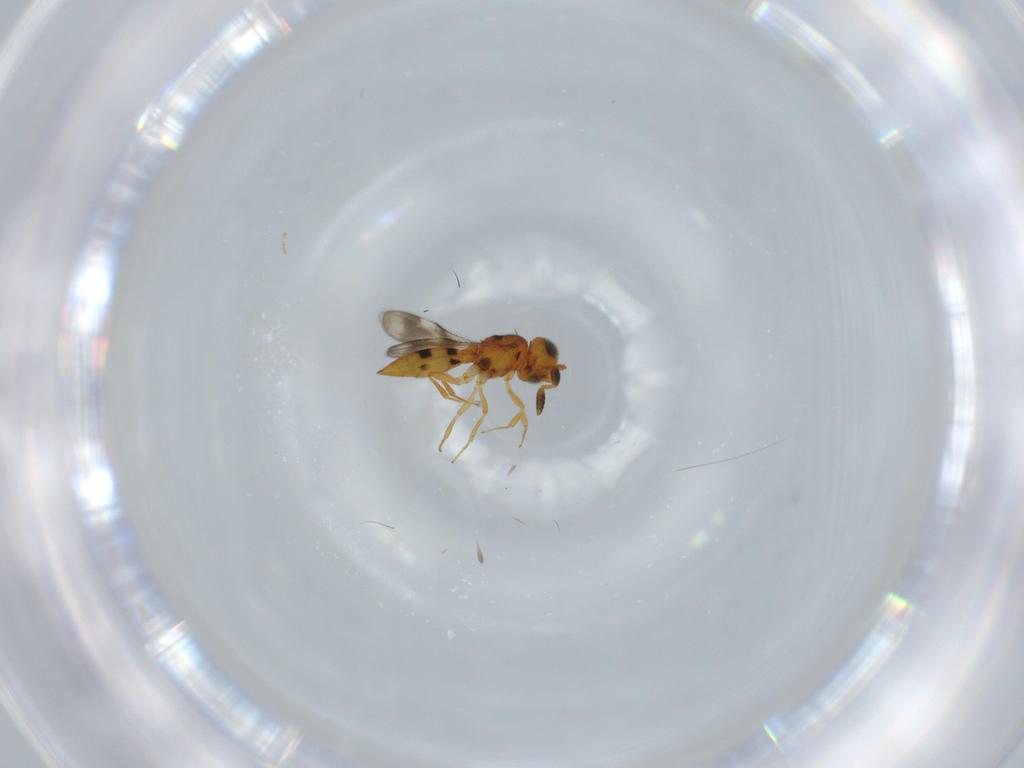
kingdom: Animalia
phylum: Arthropoda
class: Insecta
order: Hymenoptera
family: Scelionidae
